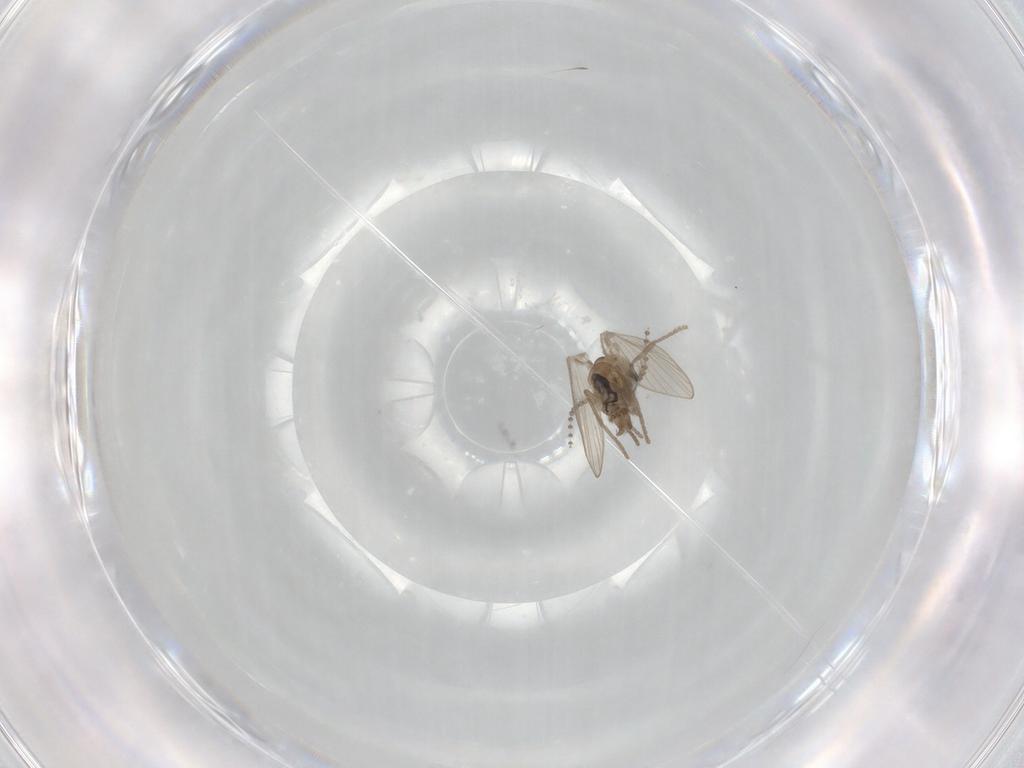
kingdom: Animalia
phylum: Arthropoda
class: Insecta
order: Diptera
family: Psychodidae
